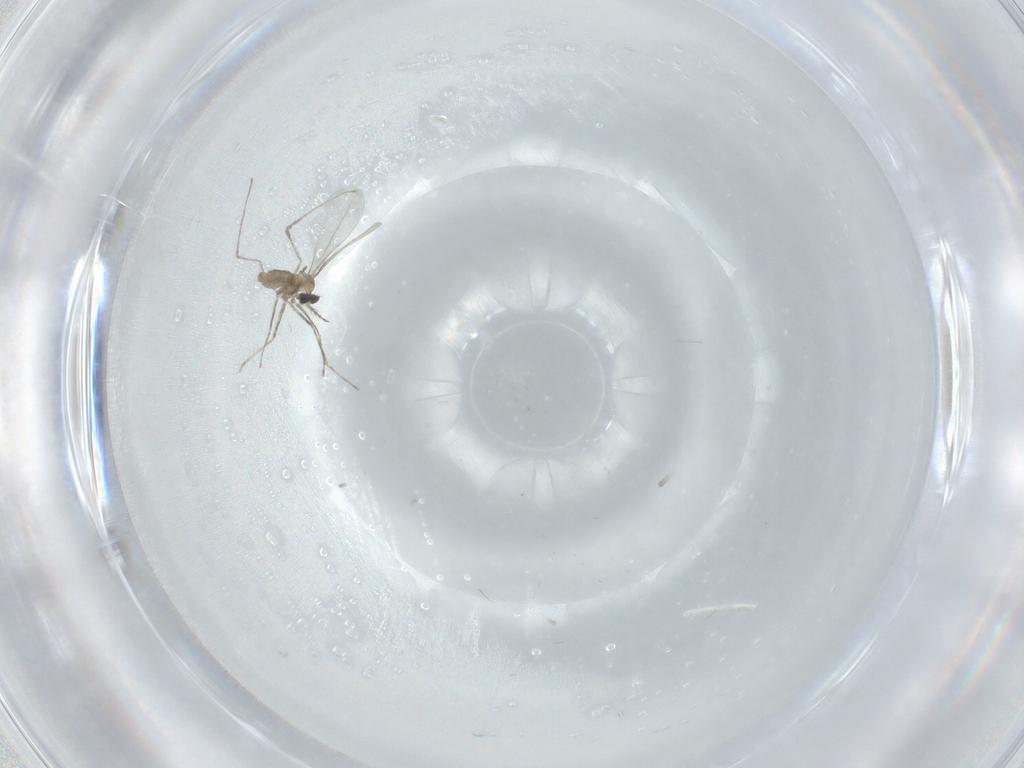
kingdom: Animalia
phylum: Arthropoda
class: Insecta
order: Diptera
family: Cecidomyiidae
